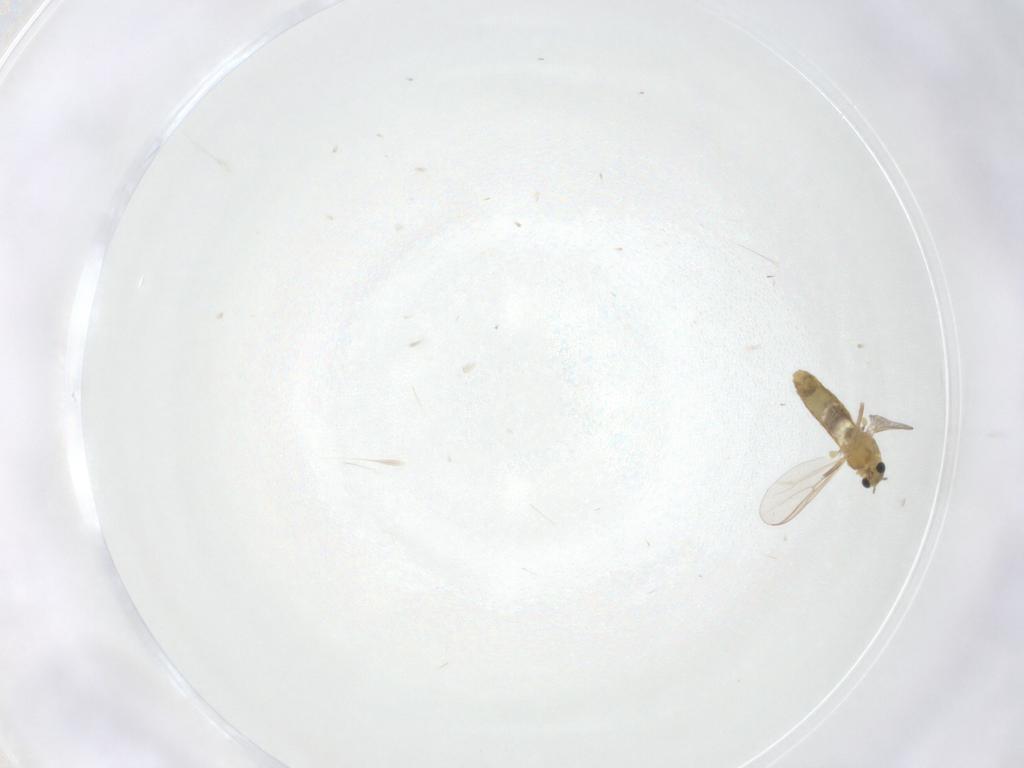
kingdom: Animalia
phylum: Arthropoda
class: Insecta
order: Diptera
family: Chironomidae
